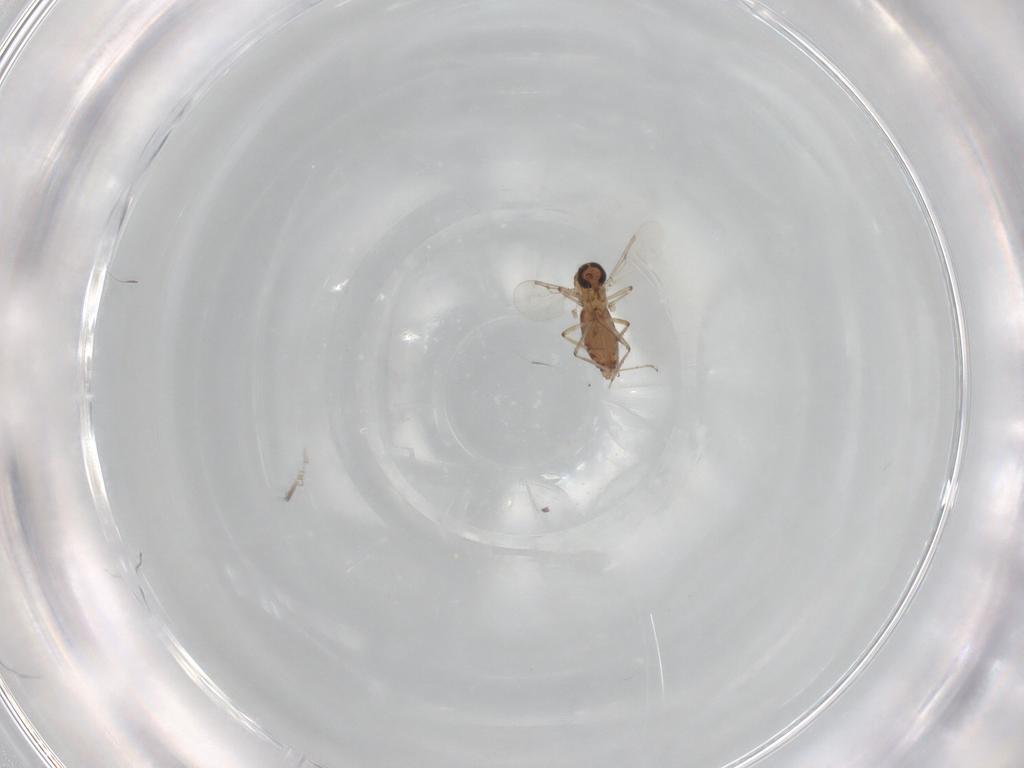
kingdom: Animalia
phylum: Arthropoda
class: Insecta
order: Diptera
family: Ceratopogonidae
